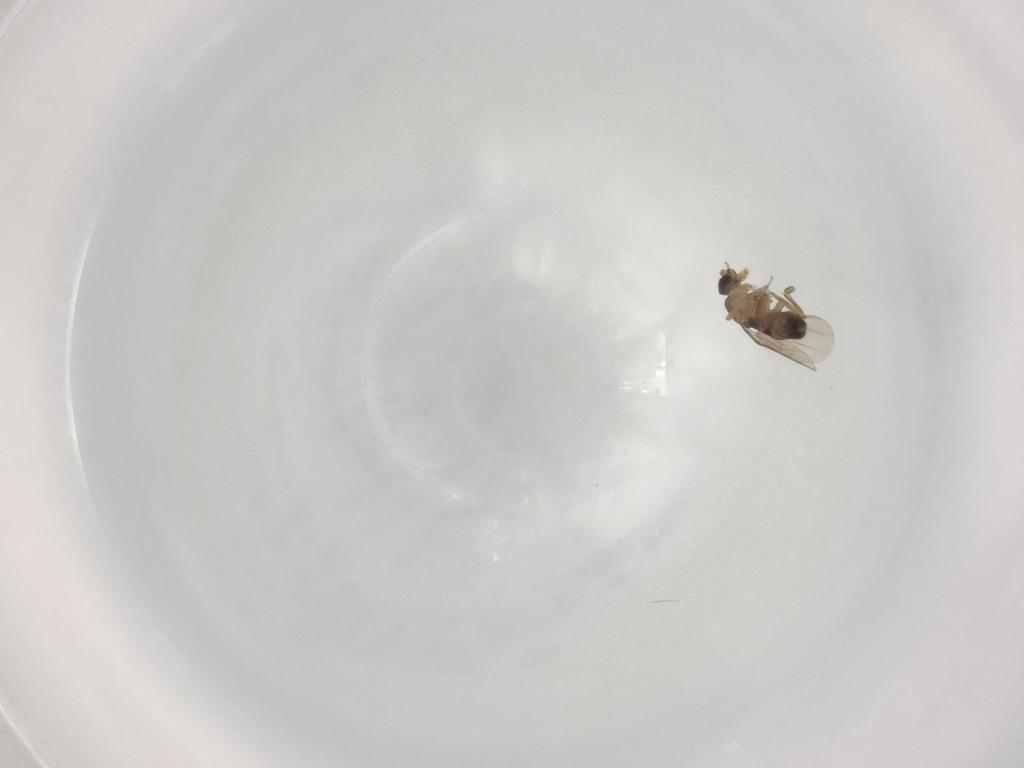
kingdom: Animalia
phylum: Arthropoda
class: Insecta
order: Diptera
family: Phoridae
